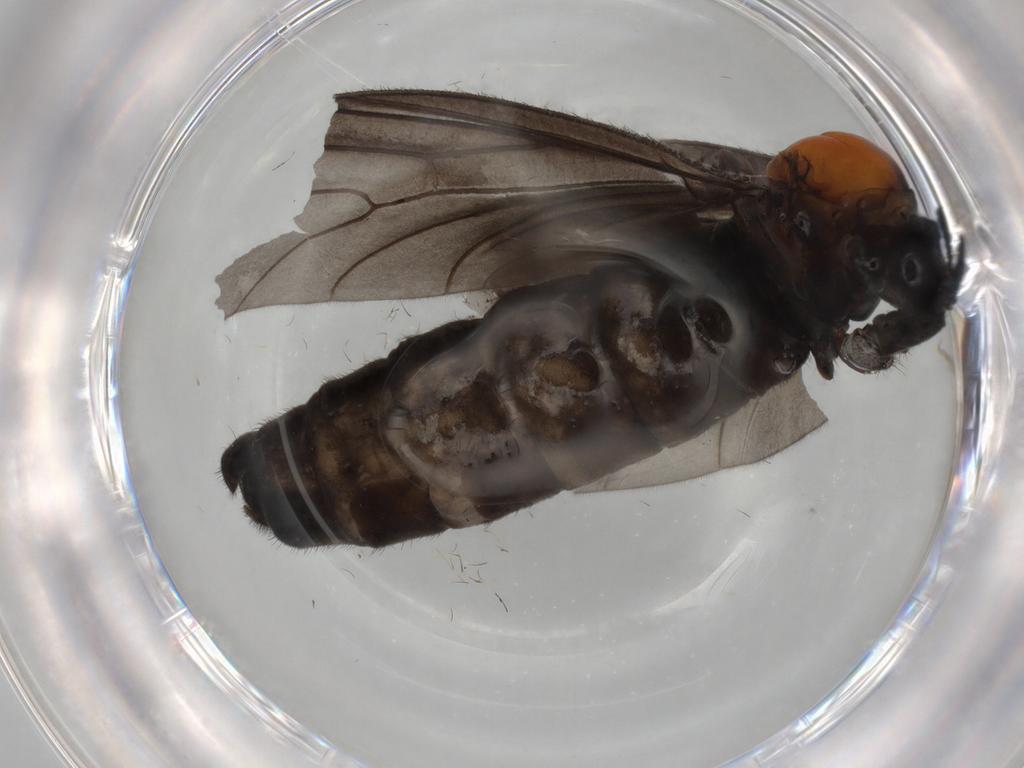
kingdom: Animalia
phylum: Arthropoda
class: Insecta
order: Diptera
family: Bibionidae
